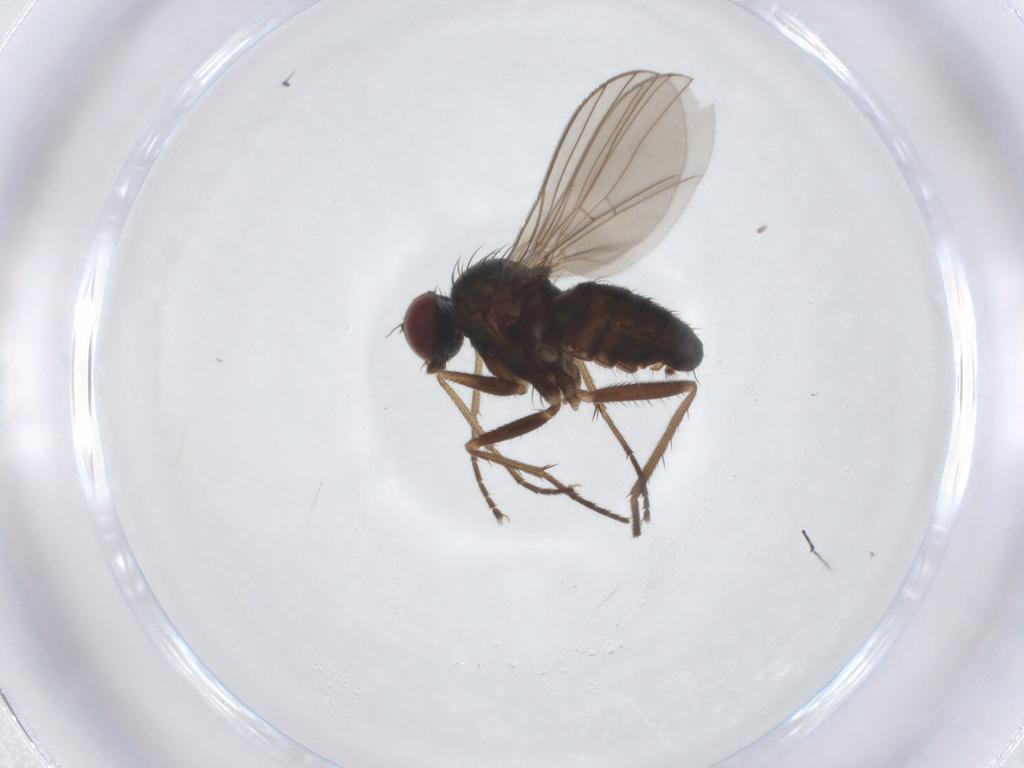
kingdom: Animalia
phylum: Arthropoda
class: Insecta
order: Diptera
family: Dolichopodidae
